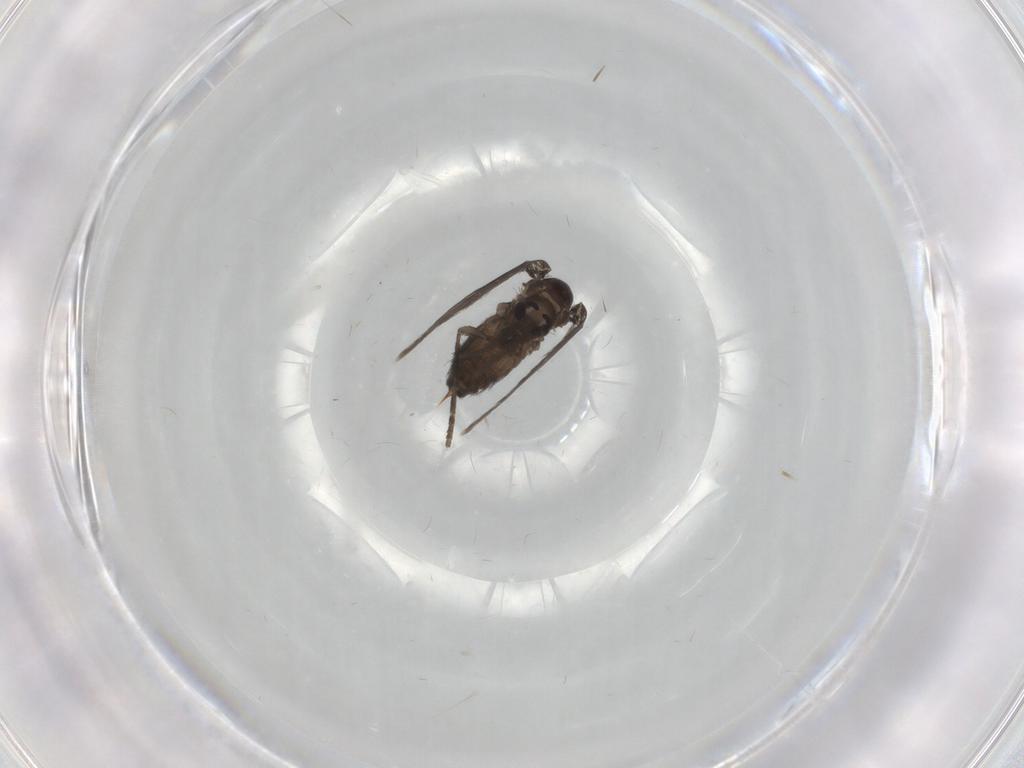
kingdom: Animalia
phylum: Arthropoda
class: Insecta
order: Diptera
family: Psychodidae
